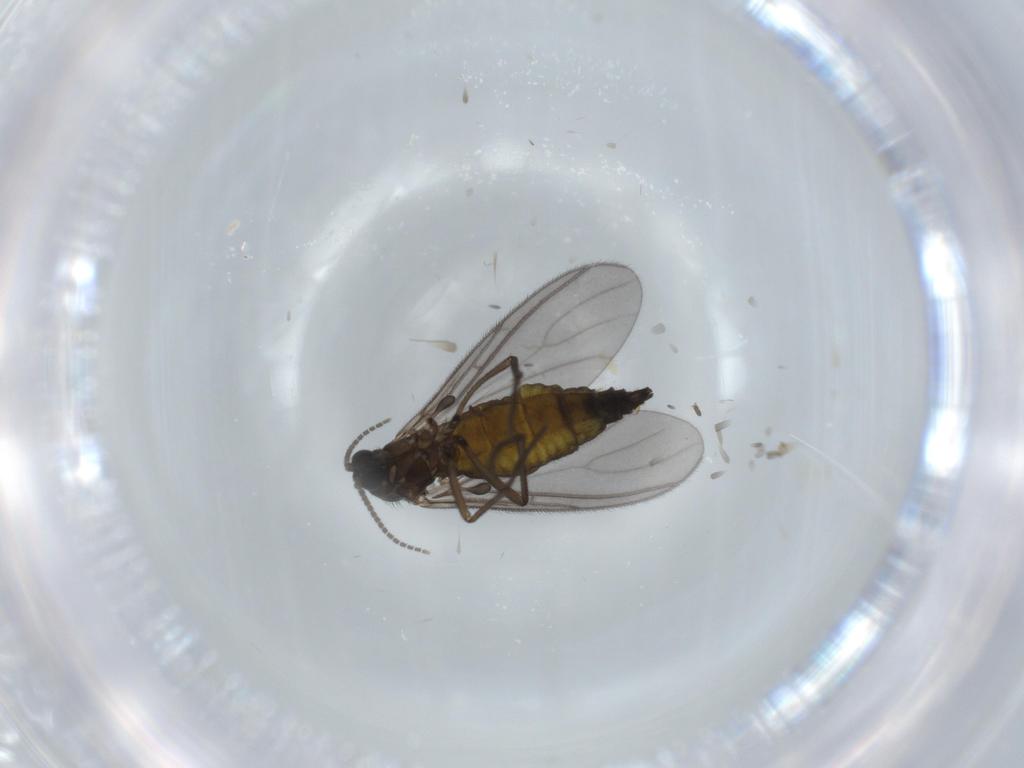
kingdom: Animalia
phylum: Arthropoda
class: Insecta
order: Diptera
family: Sciaridae
